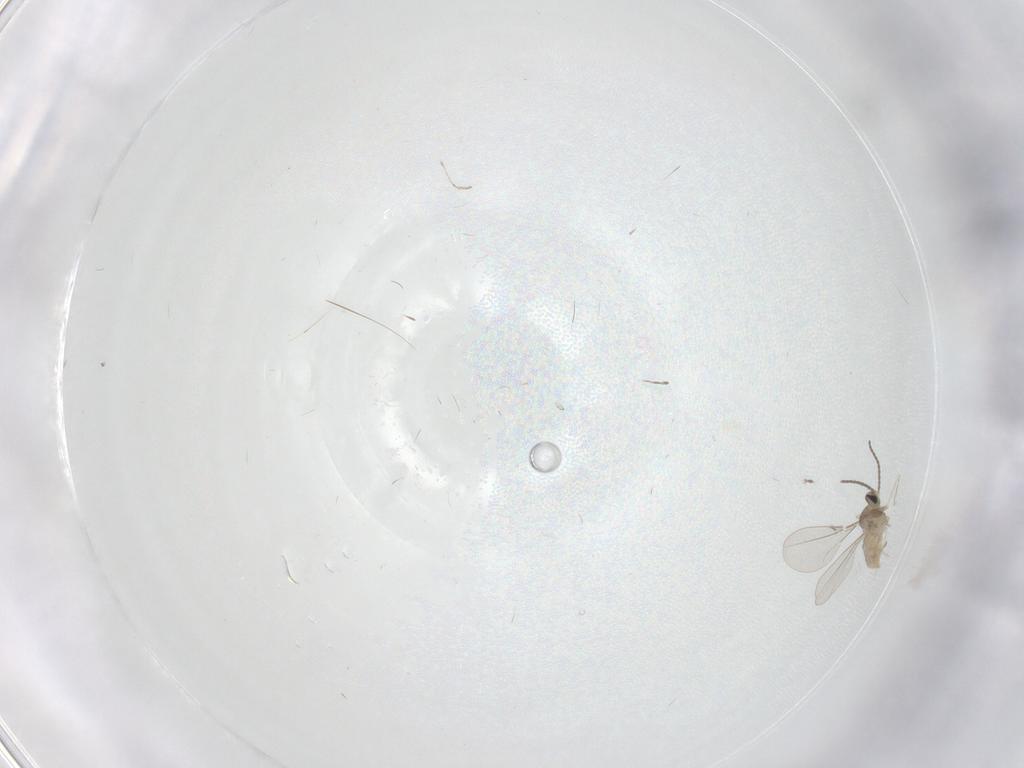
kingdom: Animalia
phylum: Arthropoda
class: Insecta
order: Diptera
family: Cecidomyiidae
